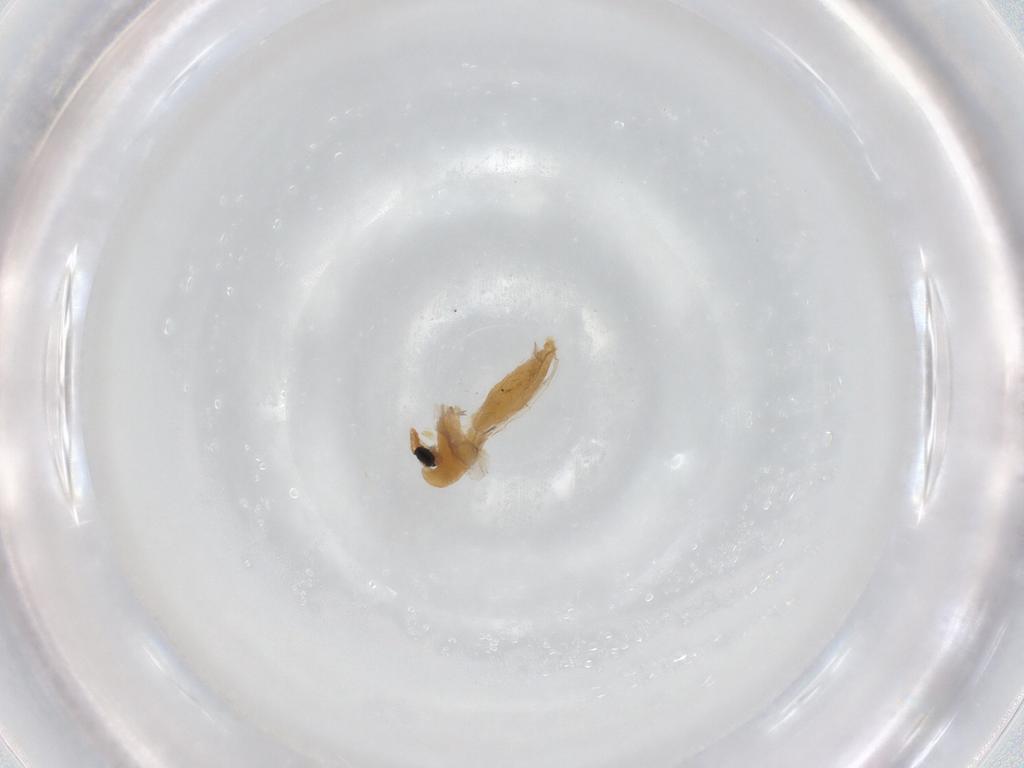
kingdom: Animalia
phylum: Arthropoda
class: Insecta
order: Diptera
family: Chironomidae
